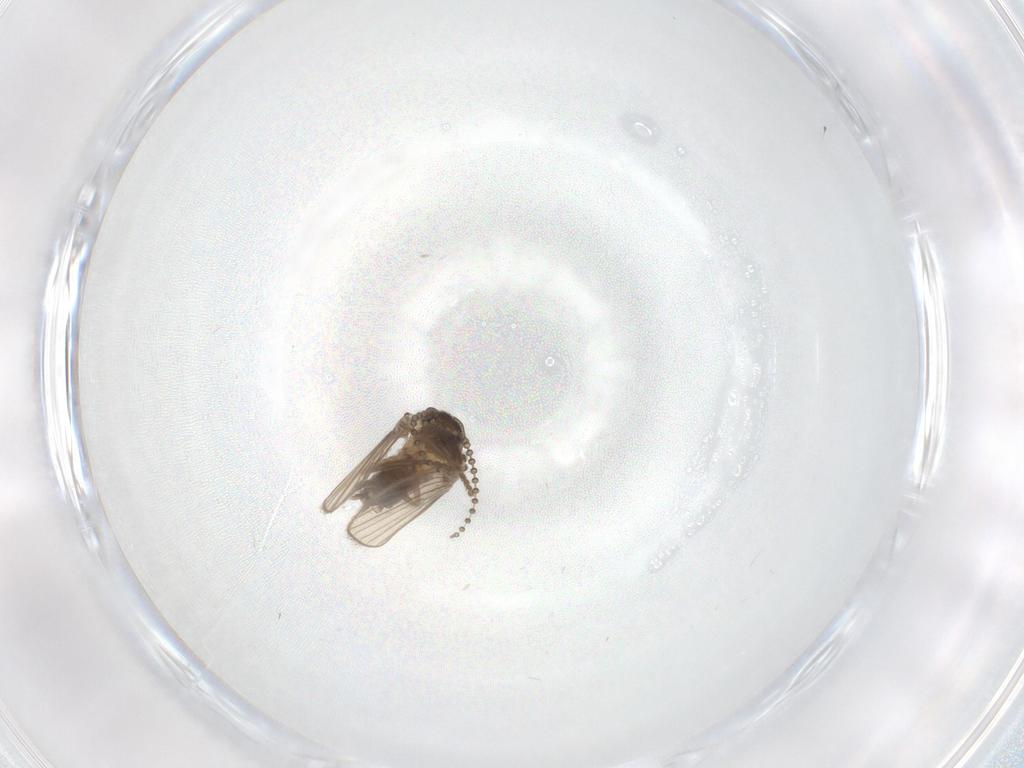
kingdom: Animalia
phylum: Arthropoda
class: Insecta
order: Diptera
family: Psychodidae
